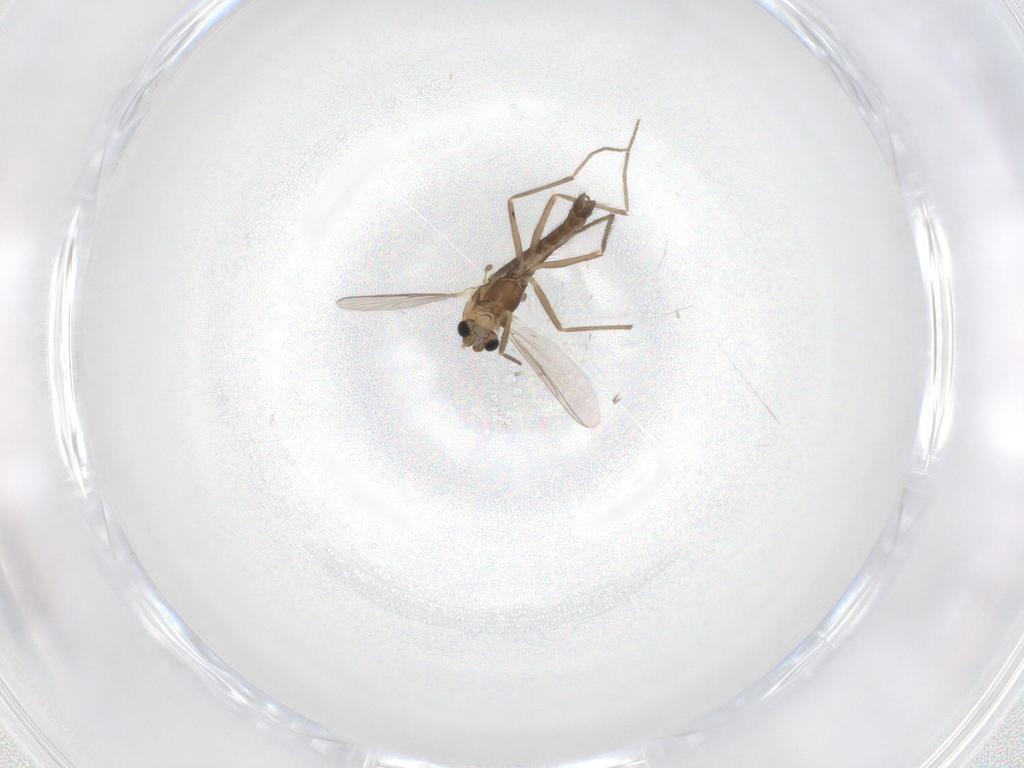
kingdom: Animalia
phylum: Arthropoda
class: Insecta
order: Diptera
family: Chironomidae
